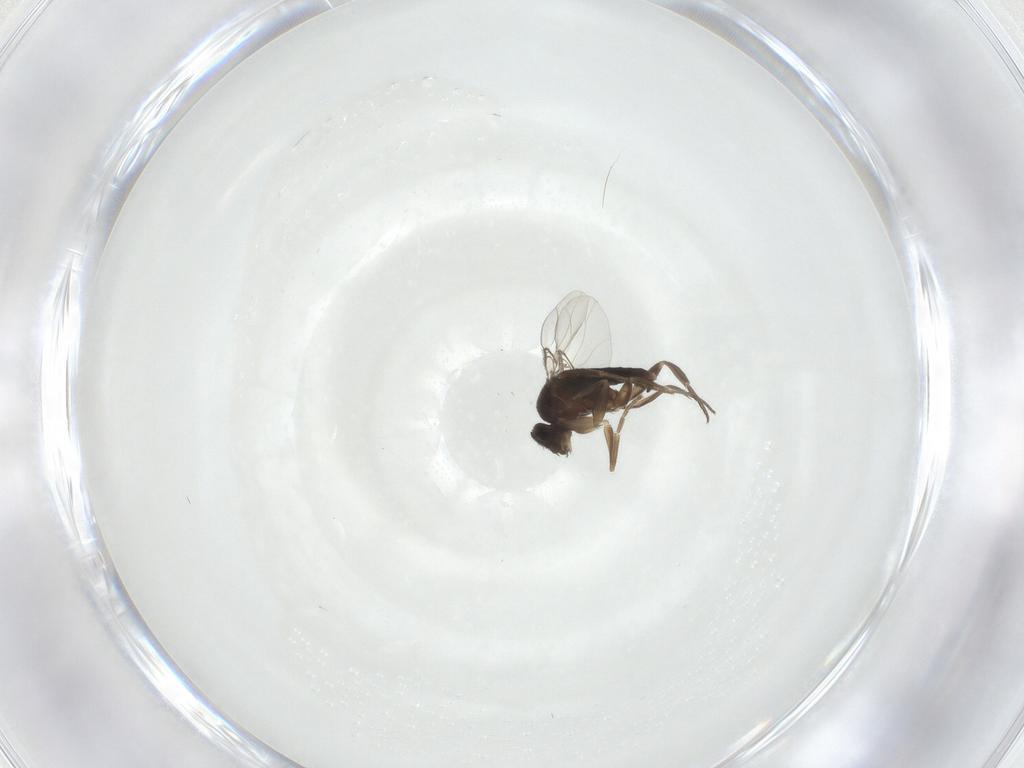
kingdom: Animalia
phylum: Arthropoda
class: Insecta
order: Diptera
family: Phoridae
